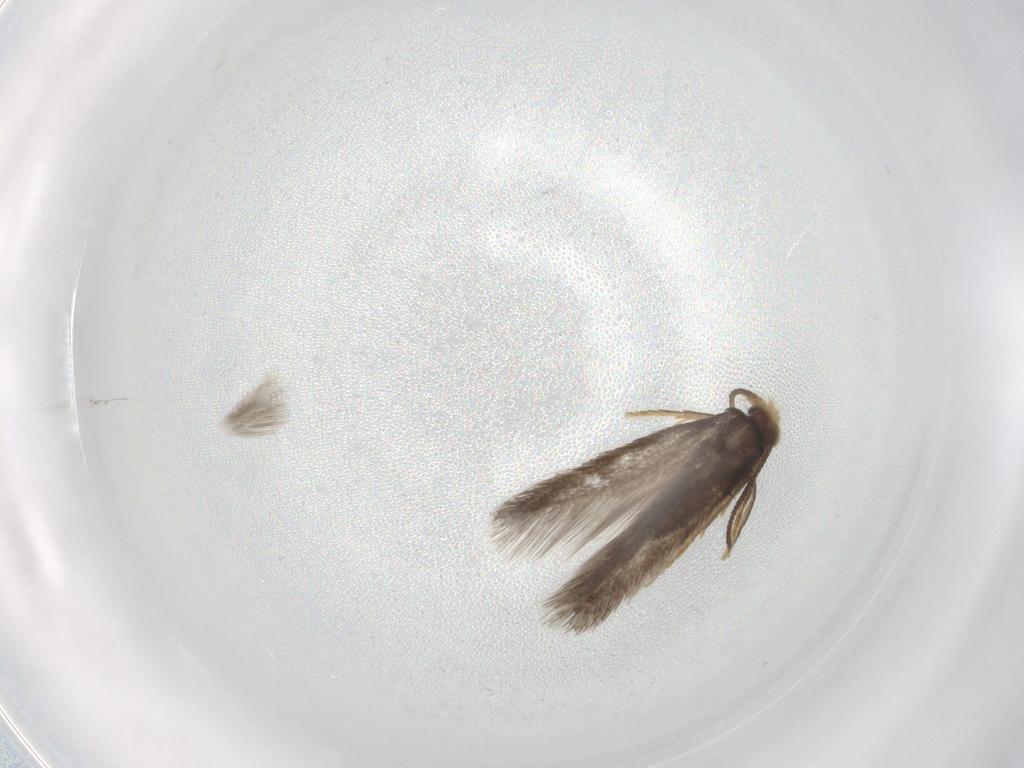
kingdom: Animalia
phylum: Arthropoda
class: Insecta
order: Lepidoptera
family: Nepticulidae
